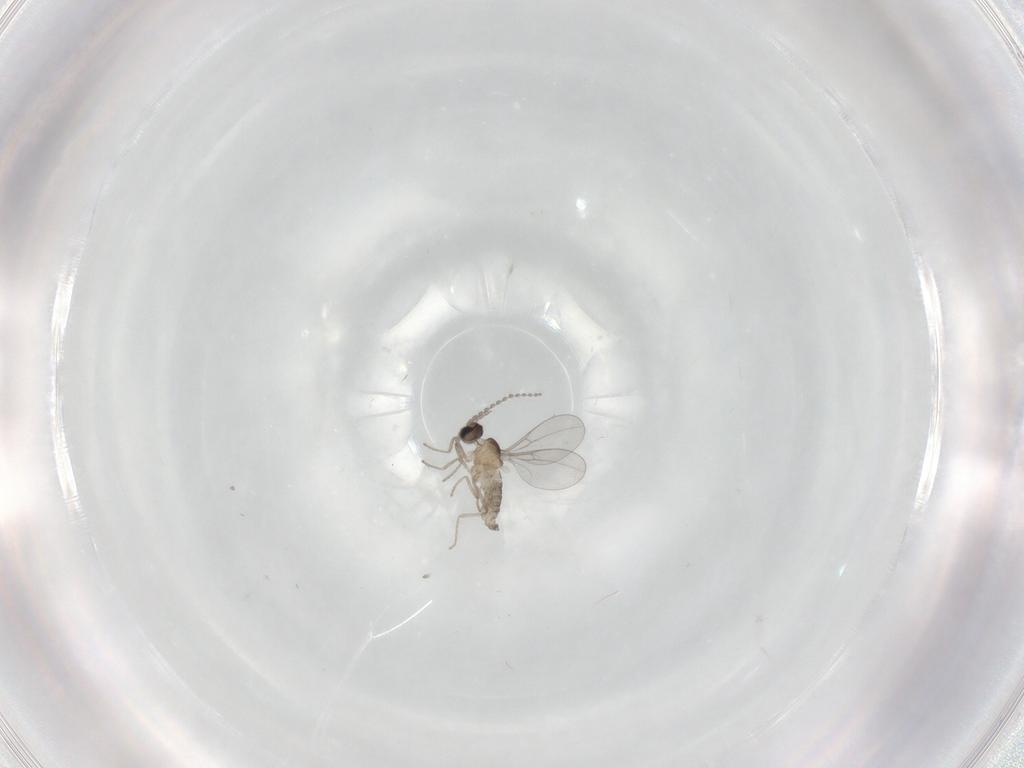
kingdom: Animalia
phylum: Arthropoda
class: Insecta
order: Diptera
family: Cecidomyiidae
